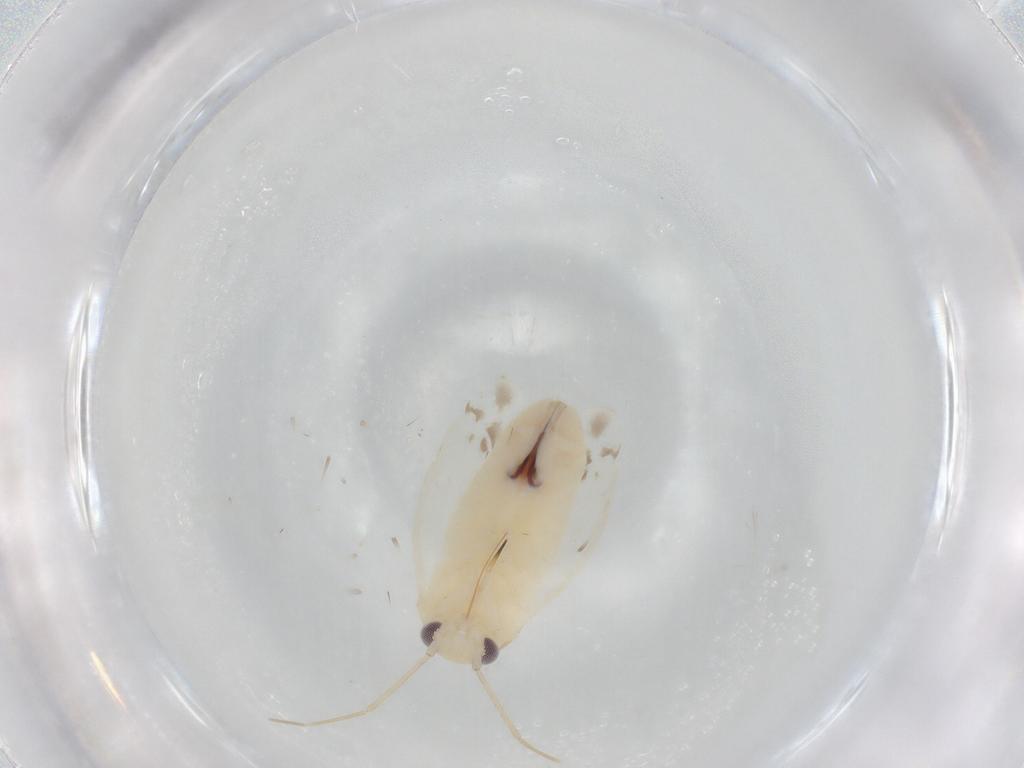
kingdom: Animalia
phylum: Arthropoda
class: Insecta
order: Hemiptera
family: Miridae
